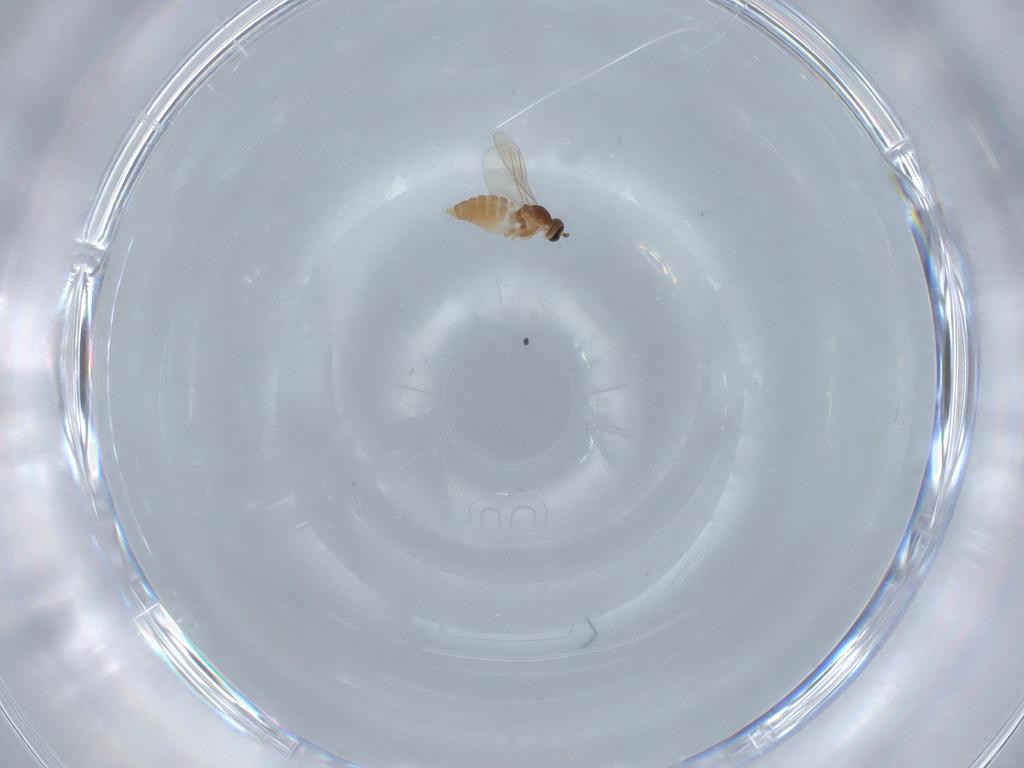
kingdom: Animalia
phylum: Arthropoda
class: Insecta
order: Diptera
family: Cecidomyiidae
